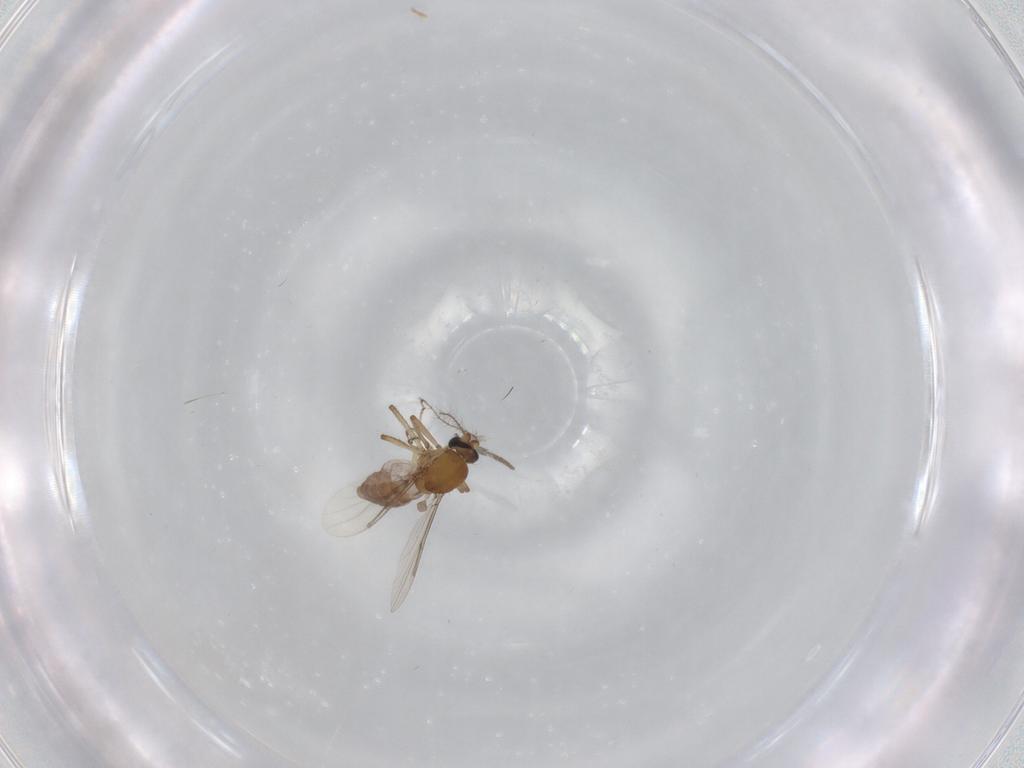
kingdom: Animalia
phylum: Arthropoda
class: Insecta
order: Diptera
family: Ceratopogonidae
